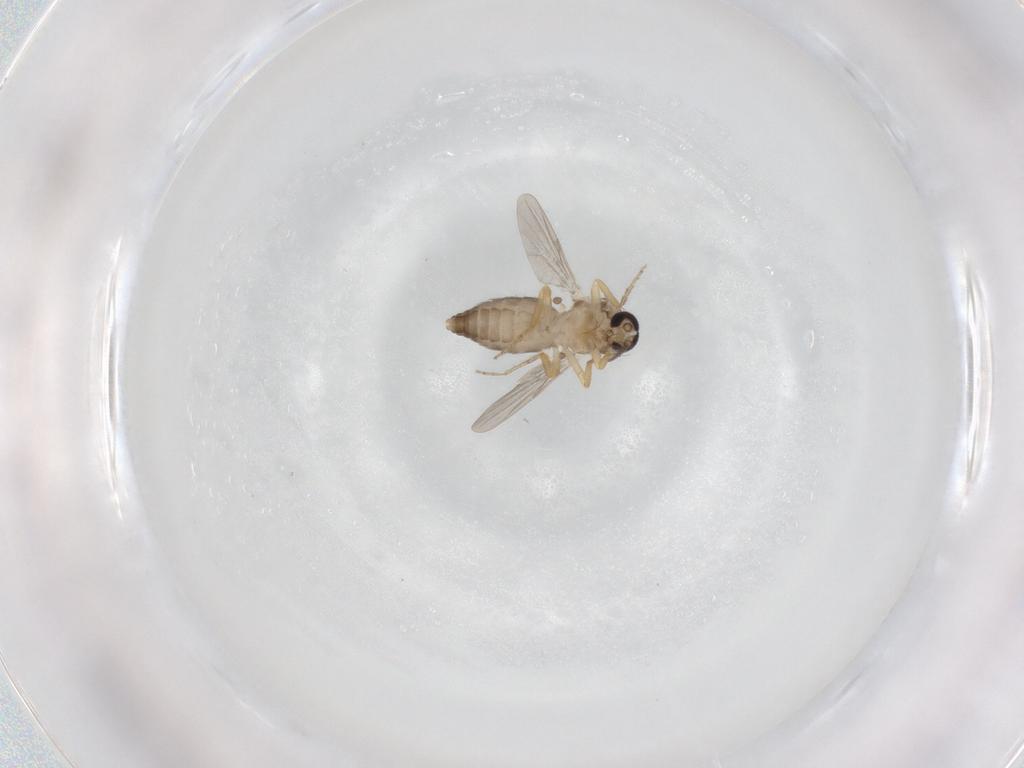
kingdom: Animalia
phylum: Arthropoda
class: Insecta
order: Diptera
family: Ceratopogonidae
